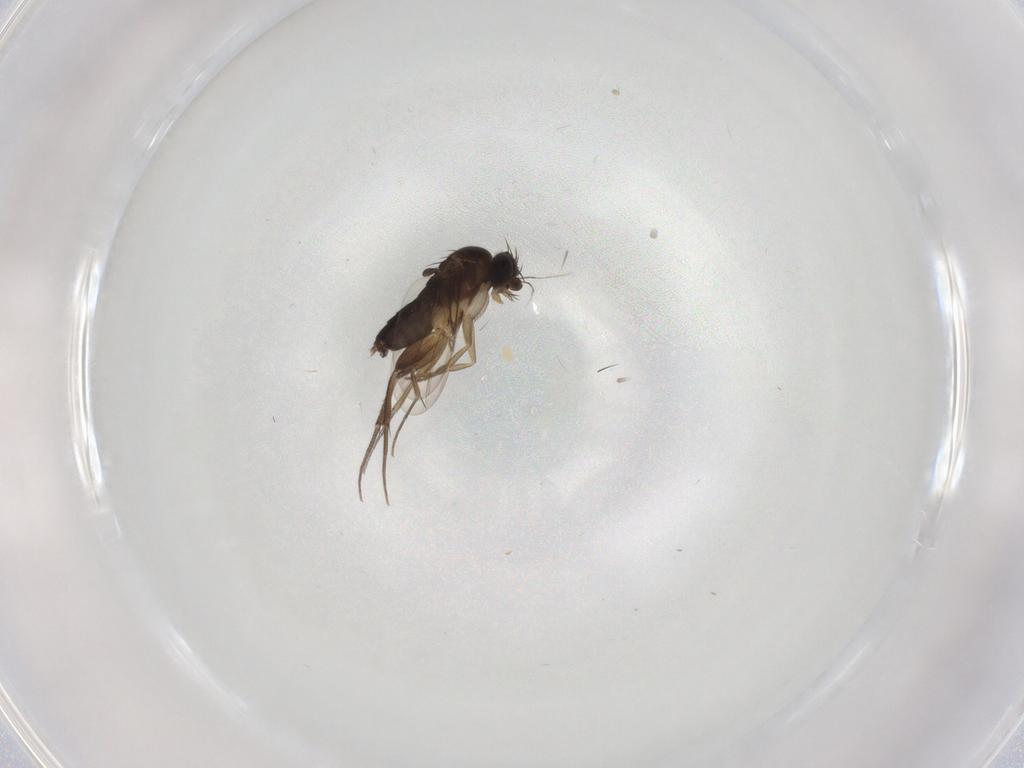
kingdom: Animalia
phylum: Arthropoda
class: Insecta
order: Diptera
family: Phoridae
